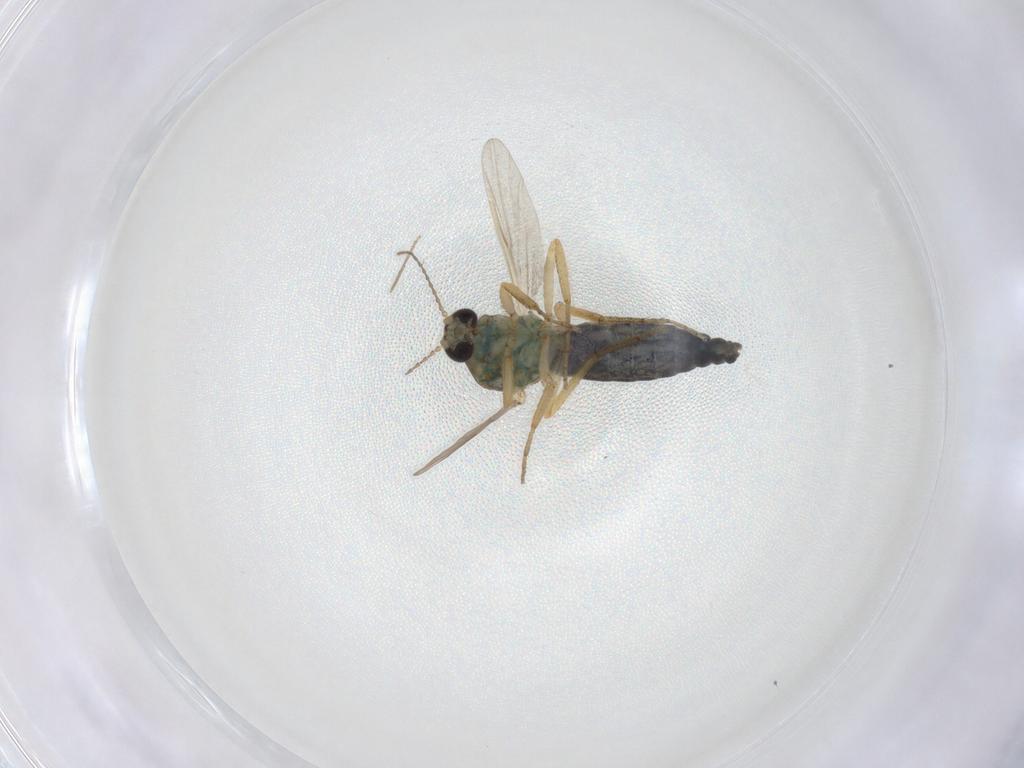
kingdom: Animalia
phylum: Arthropoda
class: Insecta
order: Diptera
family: Ceratopogonidae
